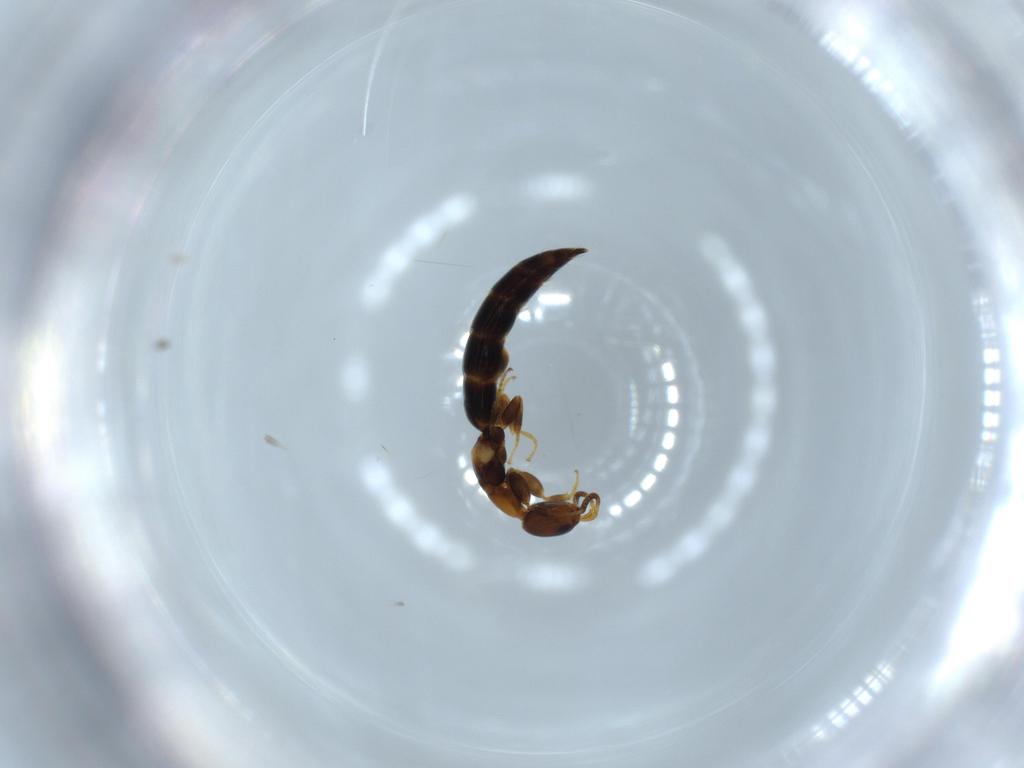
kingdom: Animalia
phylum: Arthropoda
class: Insecta
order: Hymenoptera
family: Bethylidae
